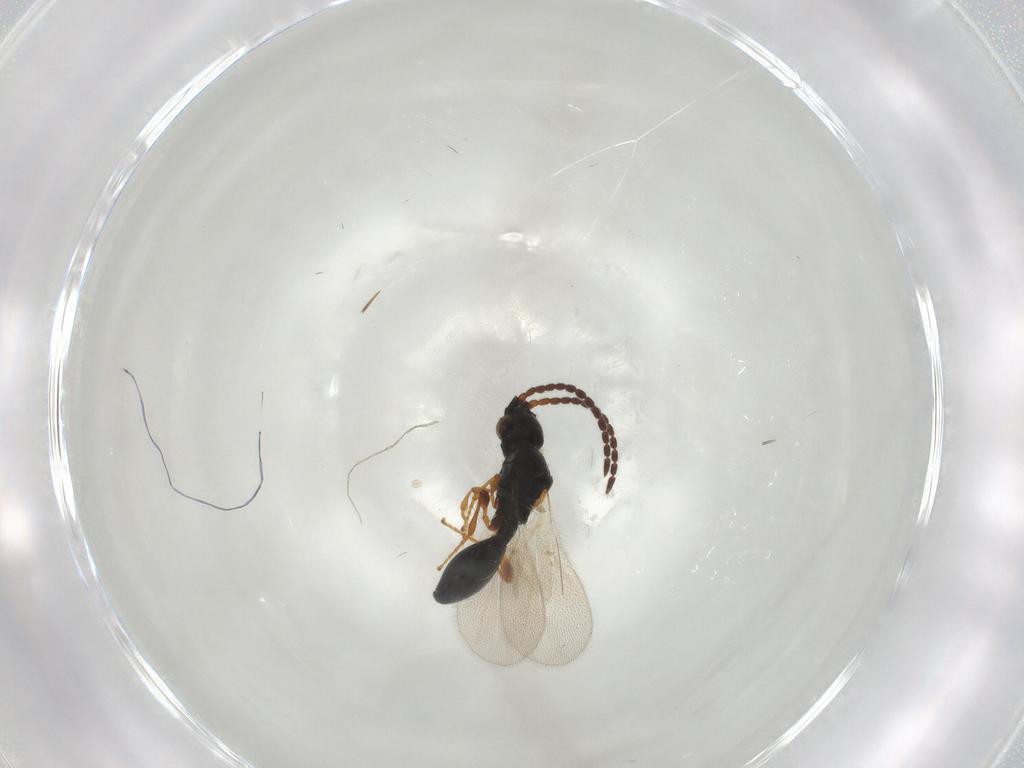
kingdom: Animalia
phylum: Arthropoda
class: Insecta
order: Hymenoptera
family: Diapriidae
